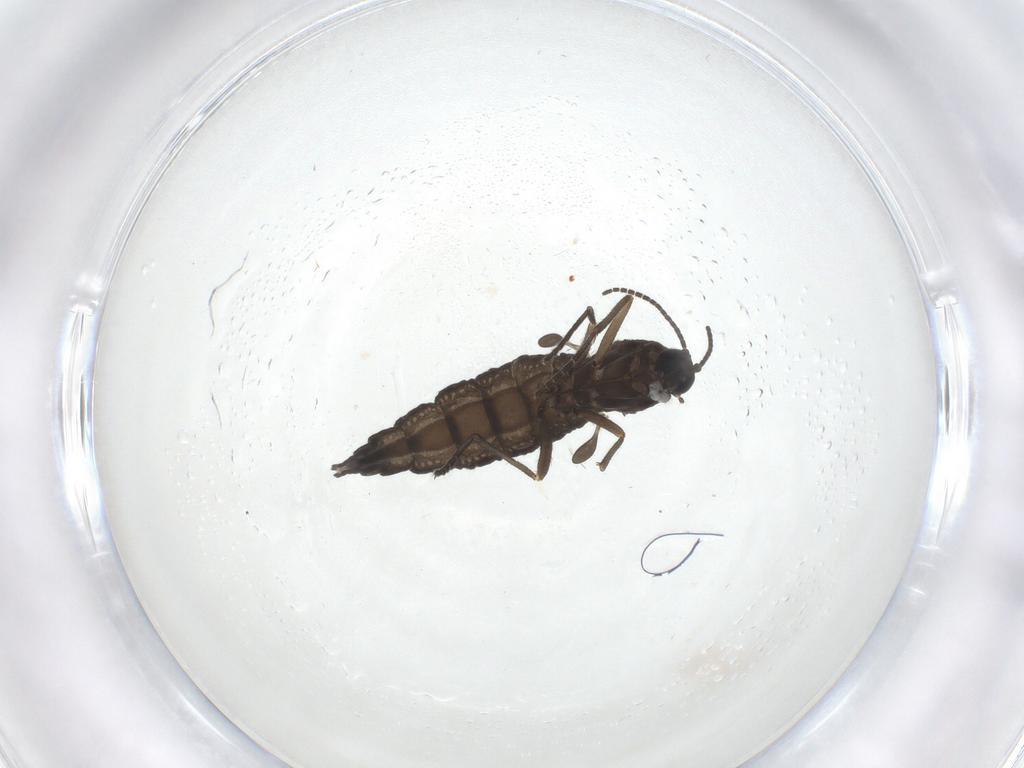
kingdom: Animalia
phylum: Arthropoda
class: Insecta
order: Diptera
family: Sciaridae
